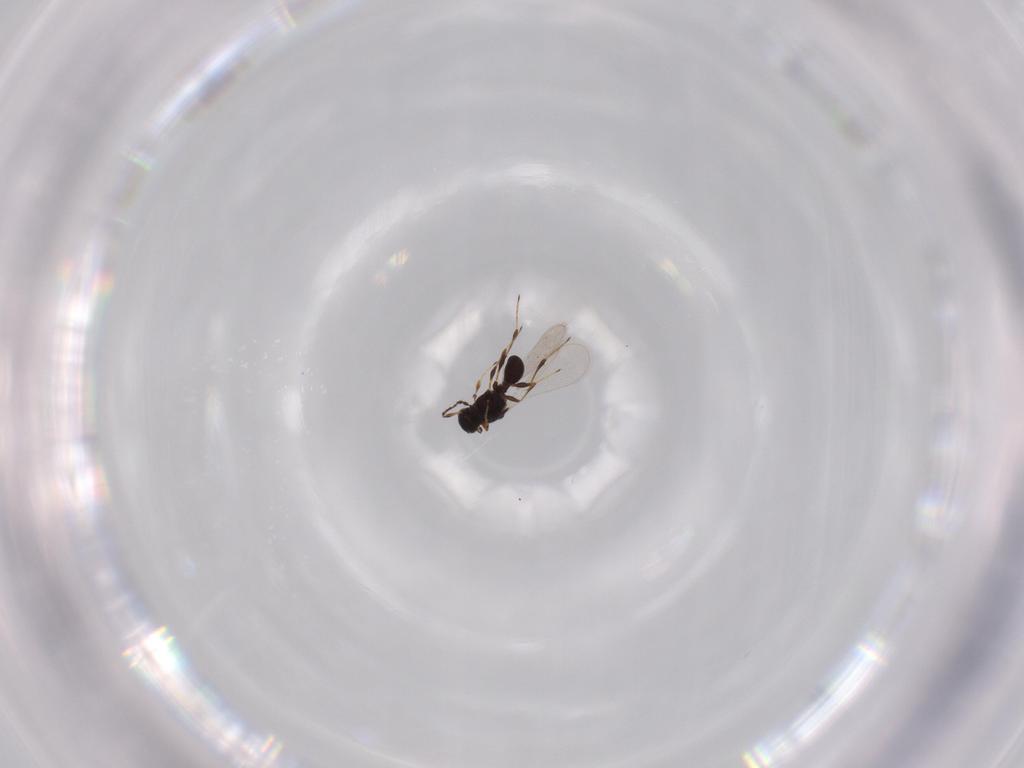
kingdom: Animalia
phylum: Arthropoda
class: Insecta
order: Hymenoptera
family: Platygastridae
